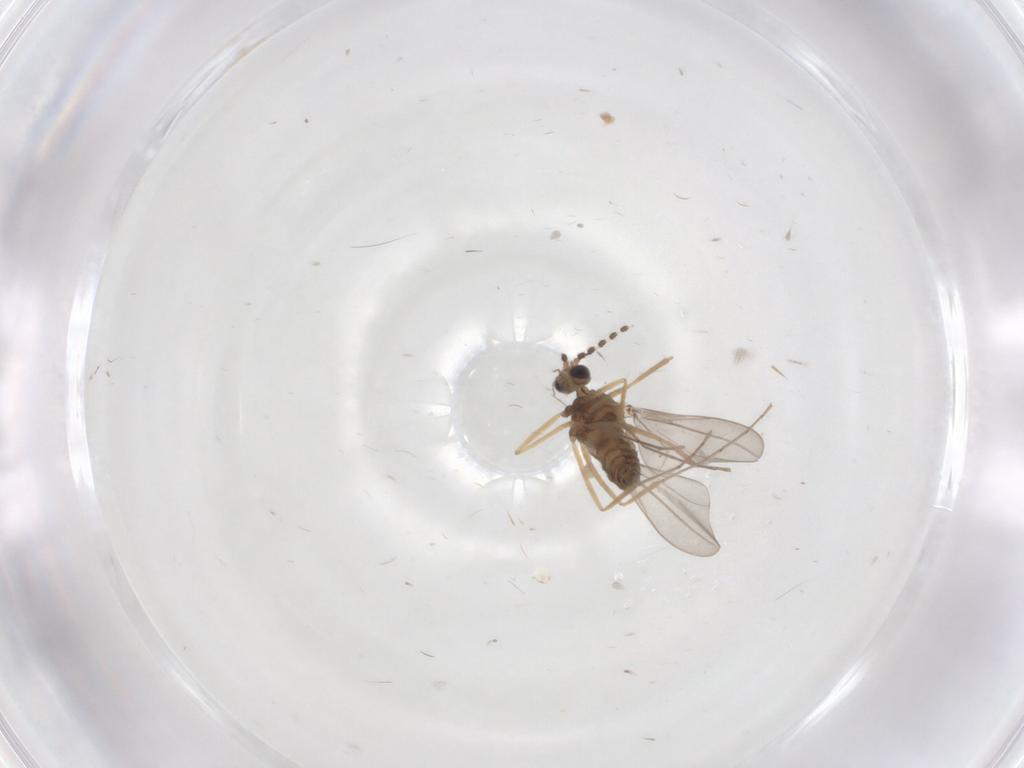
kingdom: Animalia
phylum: Arthropoda
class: Insecta
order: Diptera
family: Cecidomyiidae
